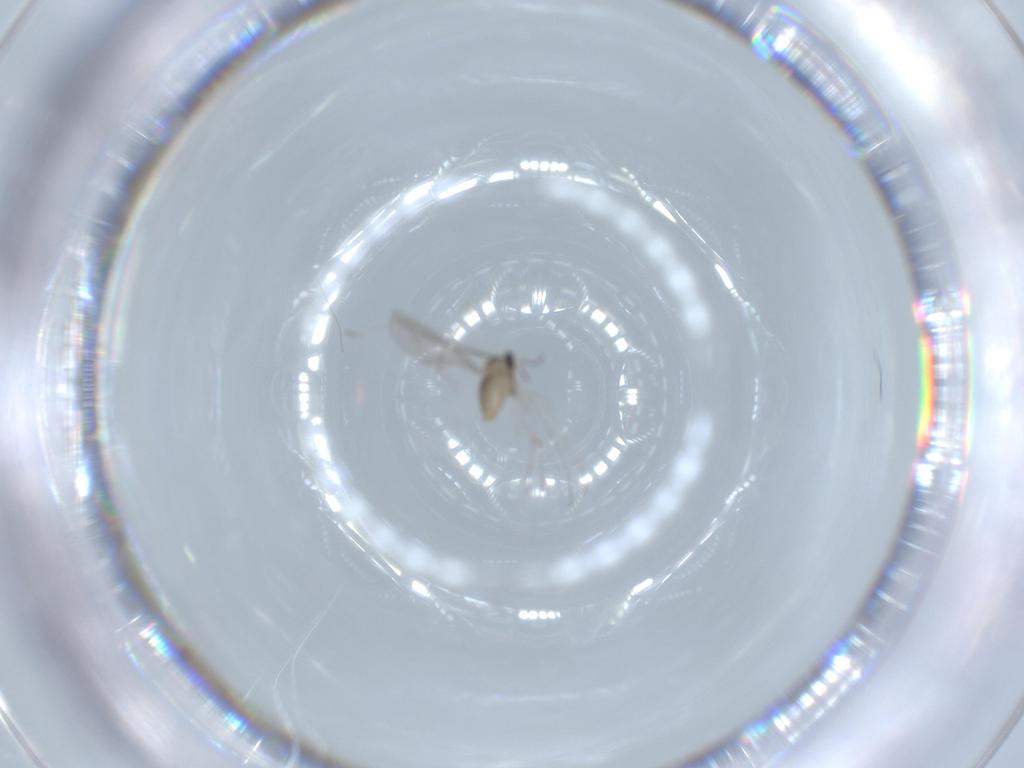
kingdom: Animalia
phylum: Arthropoda
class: Insecta
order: Diptera
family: Cecidomyiidae
